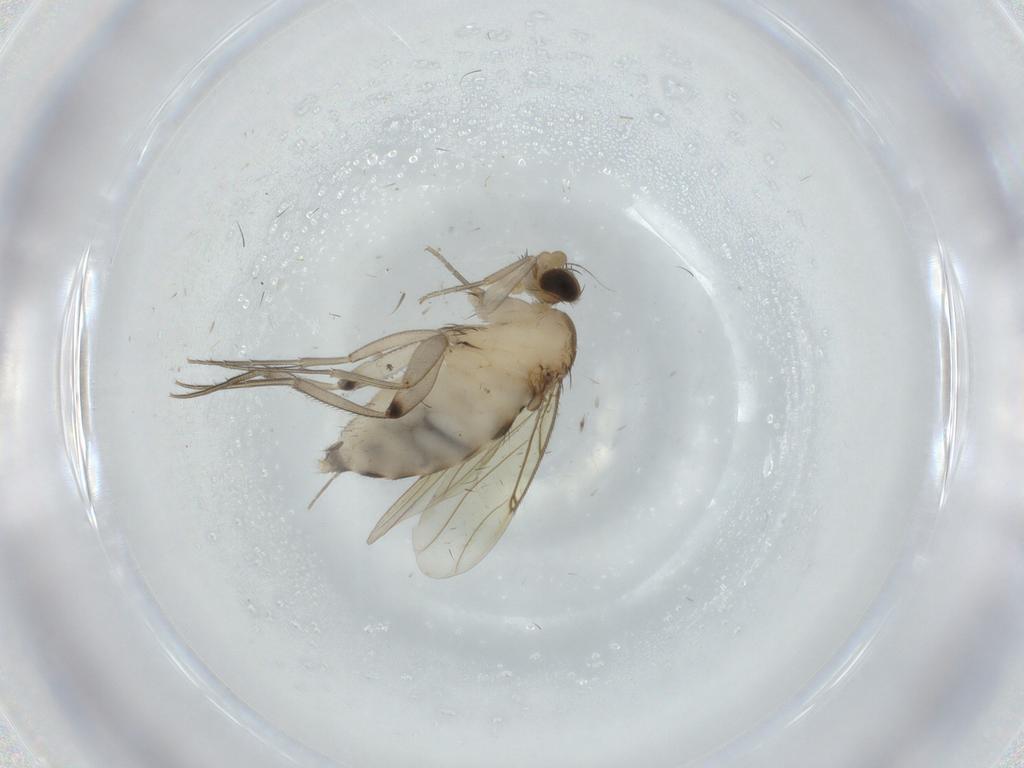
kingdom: Animalia
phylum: Arthropoda
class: Insecta
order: Diptera
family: Phoridae
